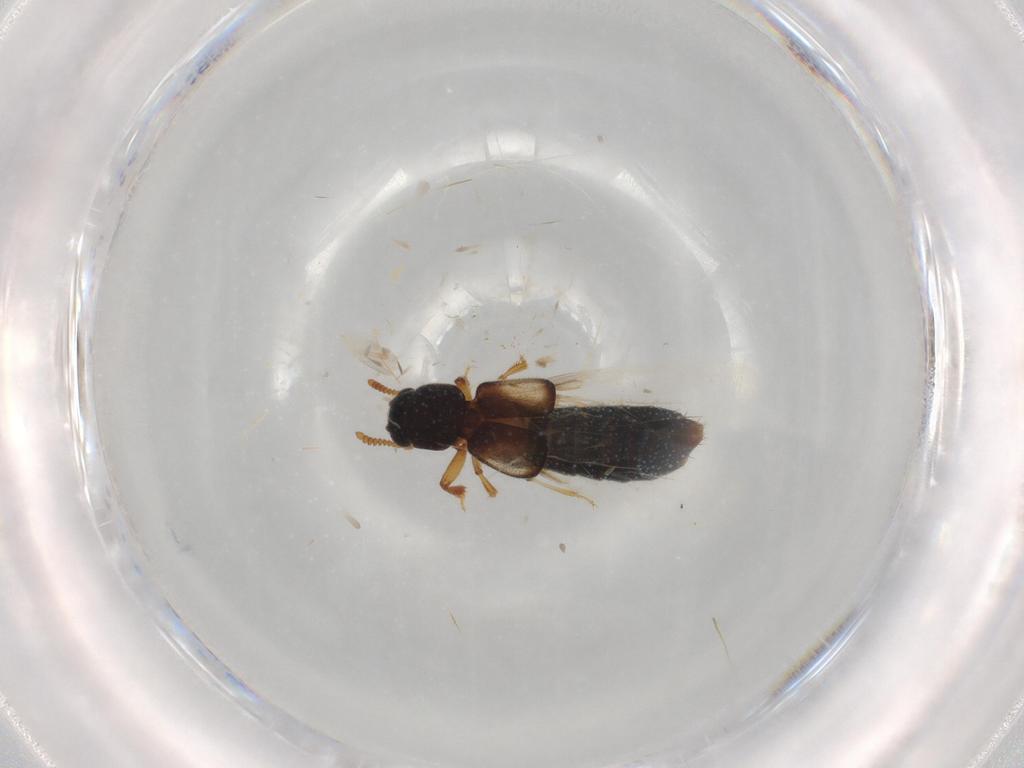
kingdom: Animalia
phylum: Arthropoda
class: Insecta
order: Coleoptera
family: Staphylinidae
